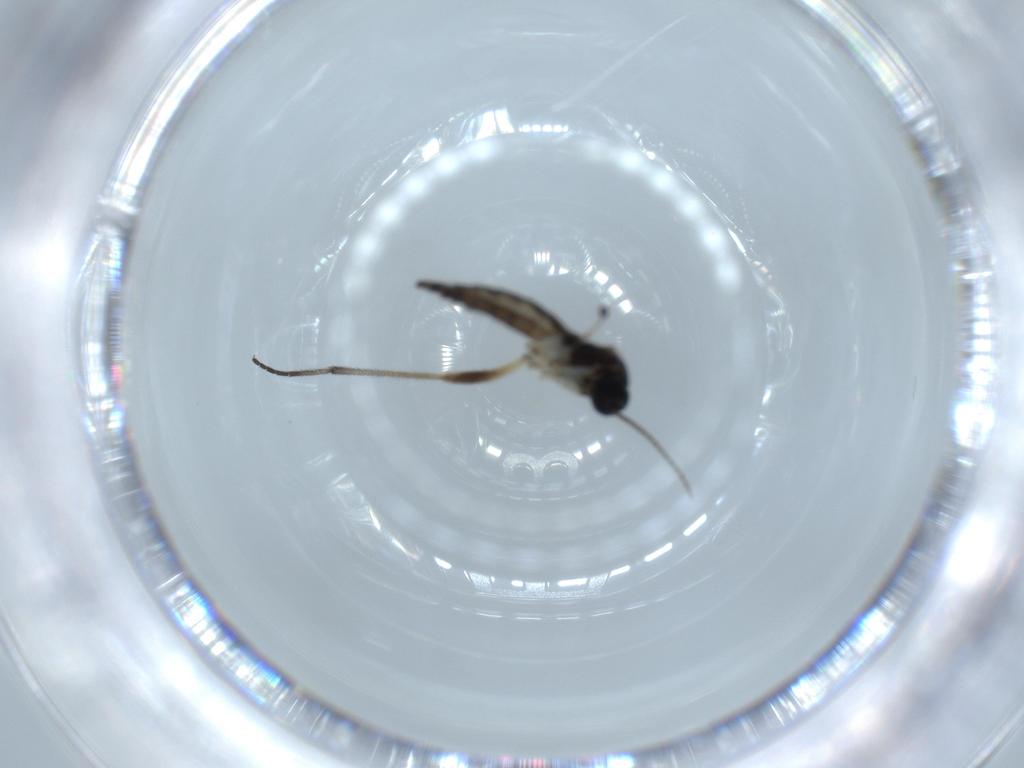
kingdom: Animalia
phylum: Arthropoda
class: Insecta
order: Diptera
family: Sciaridae
